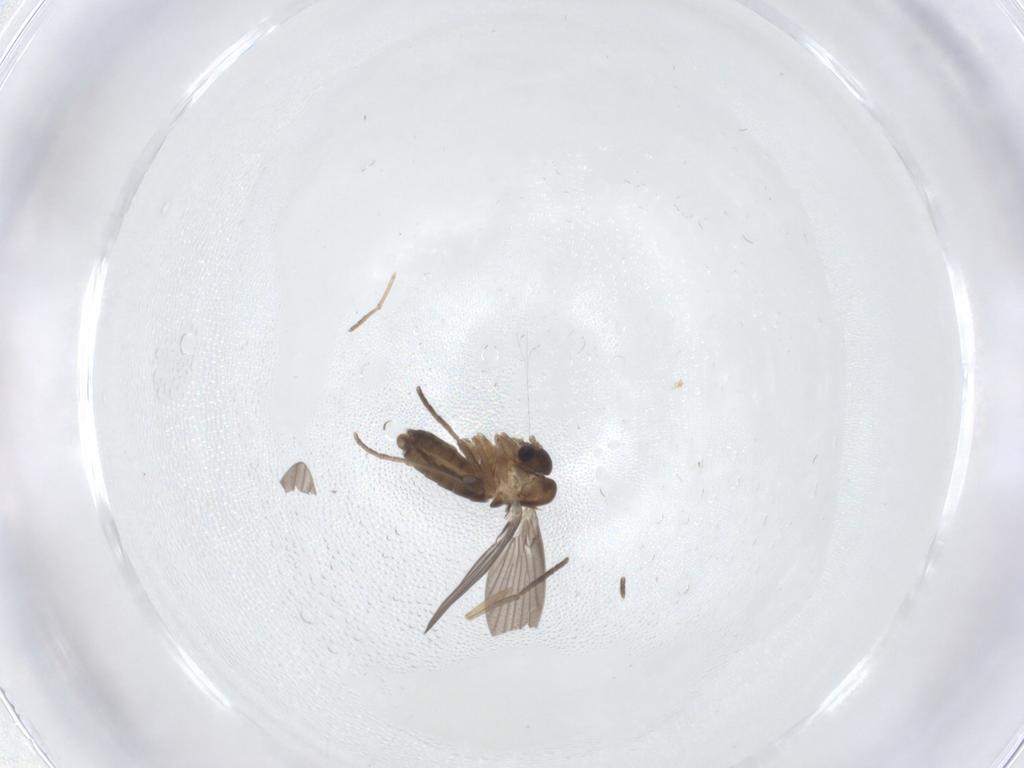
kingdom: Animalia
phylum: Arthropoda
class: Insecta
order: Diptera
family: Psychodidae
